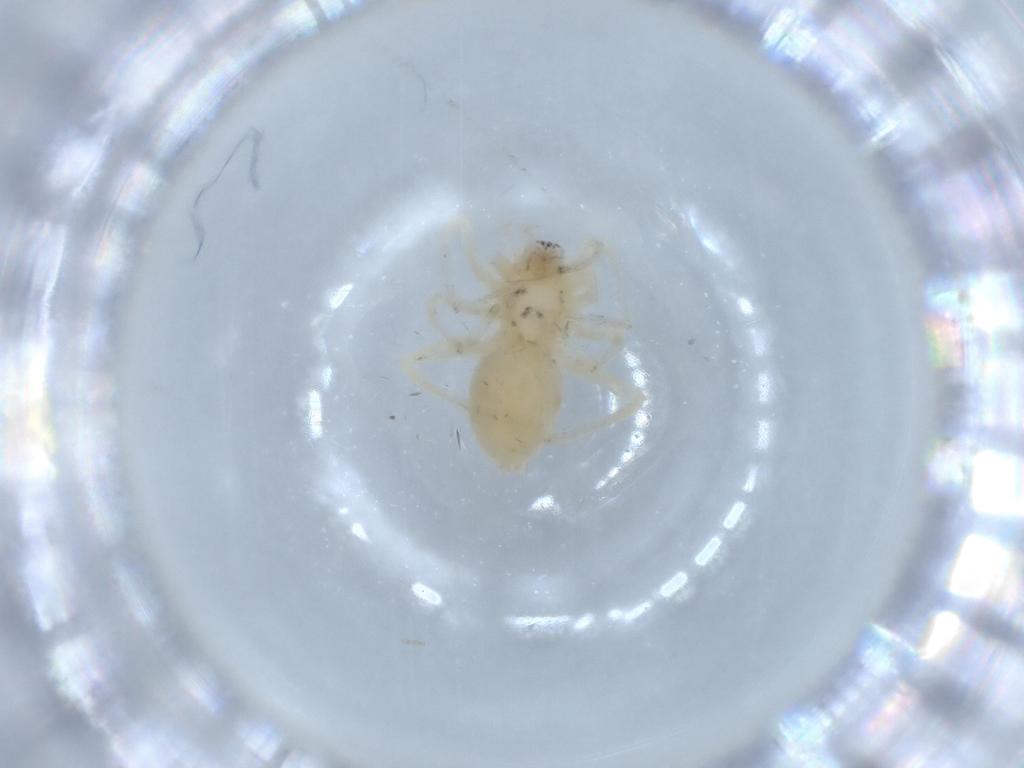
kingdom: Animalia
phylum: Arthropoda
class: Arachnida
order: Araneae
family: Anyphaenidae
